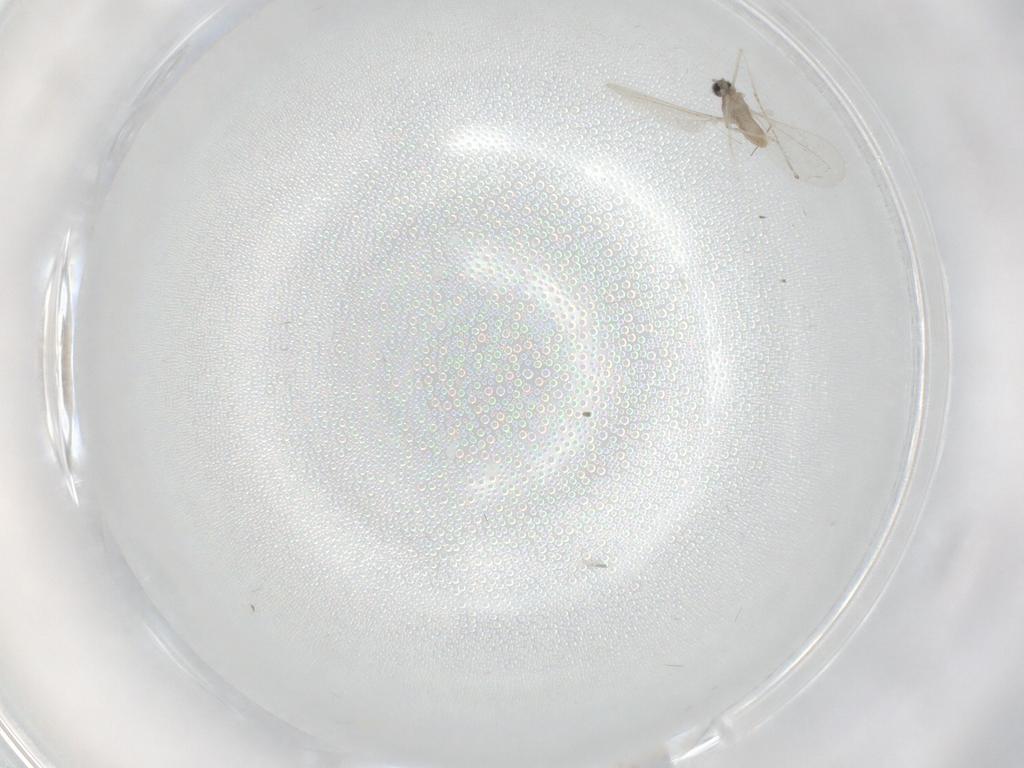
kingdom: Animalia
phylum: Arthropoda
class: Insecta
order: Diptera
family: Cecidomyiidae
